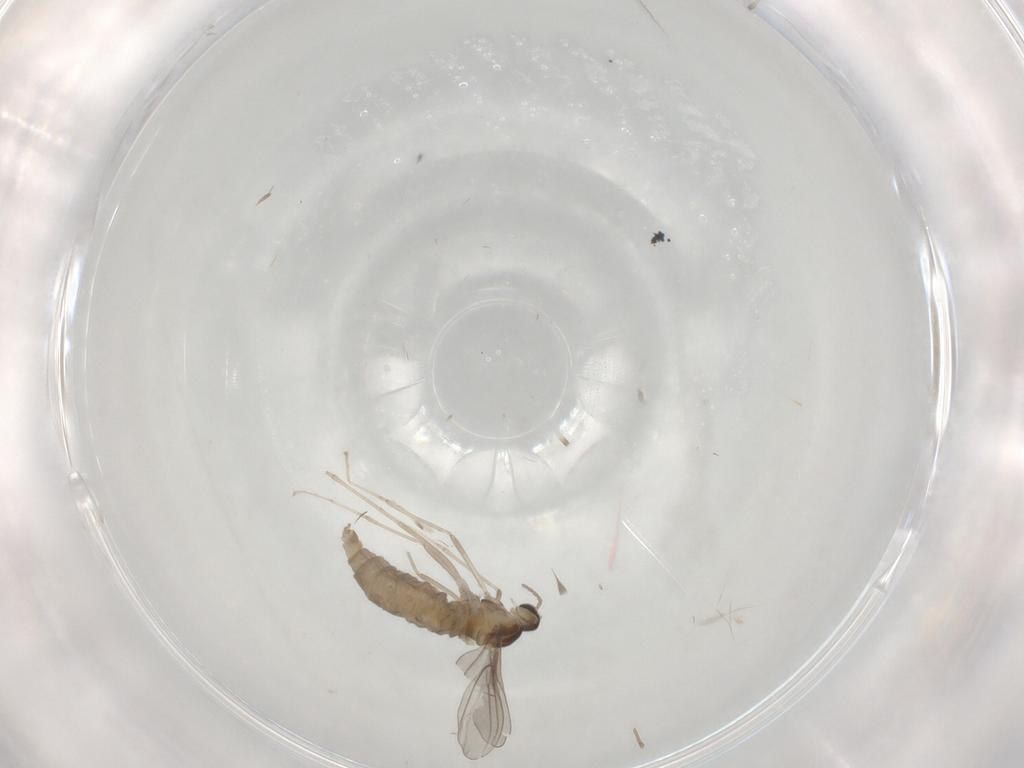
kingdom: Animalia
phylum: Arthropoda
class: Insecta
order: Diptera
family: Cecidomyiidae
